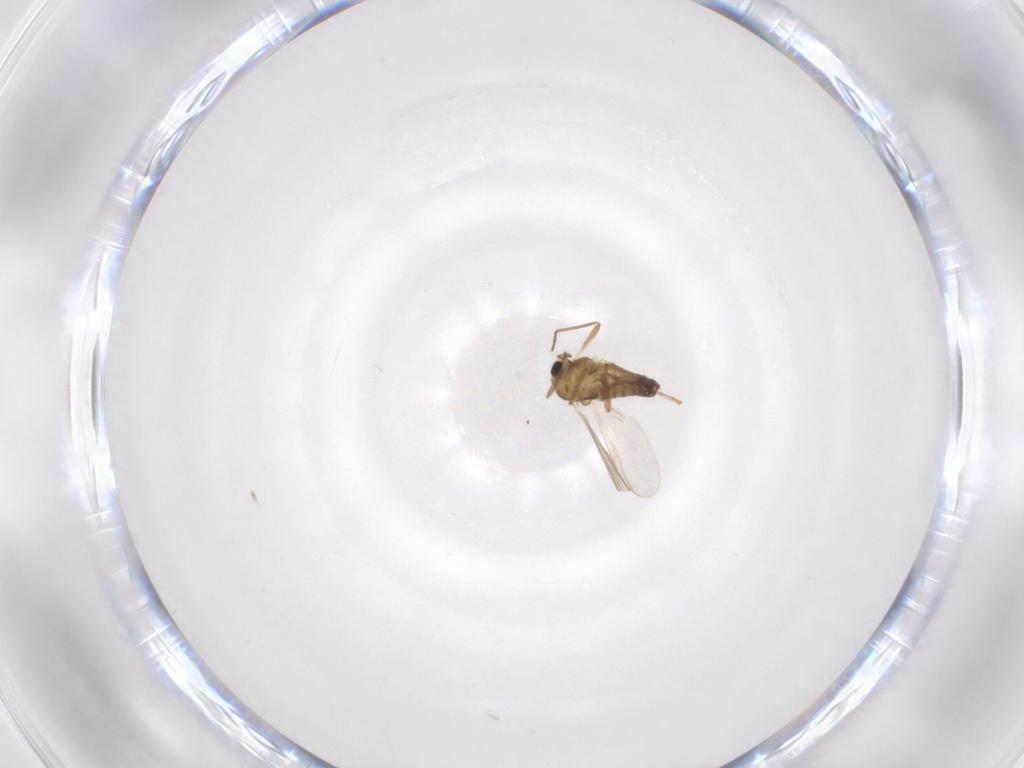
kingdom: Animalia
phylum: Arthropoda
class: Insecta
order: Diptera
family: Chironomidae
